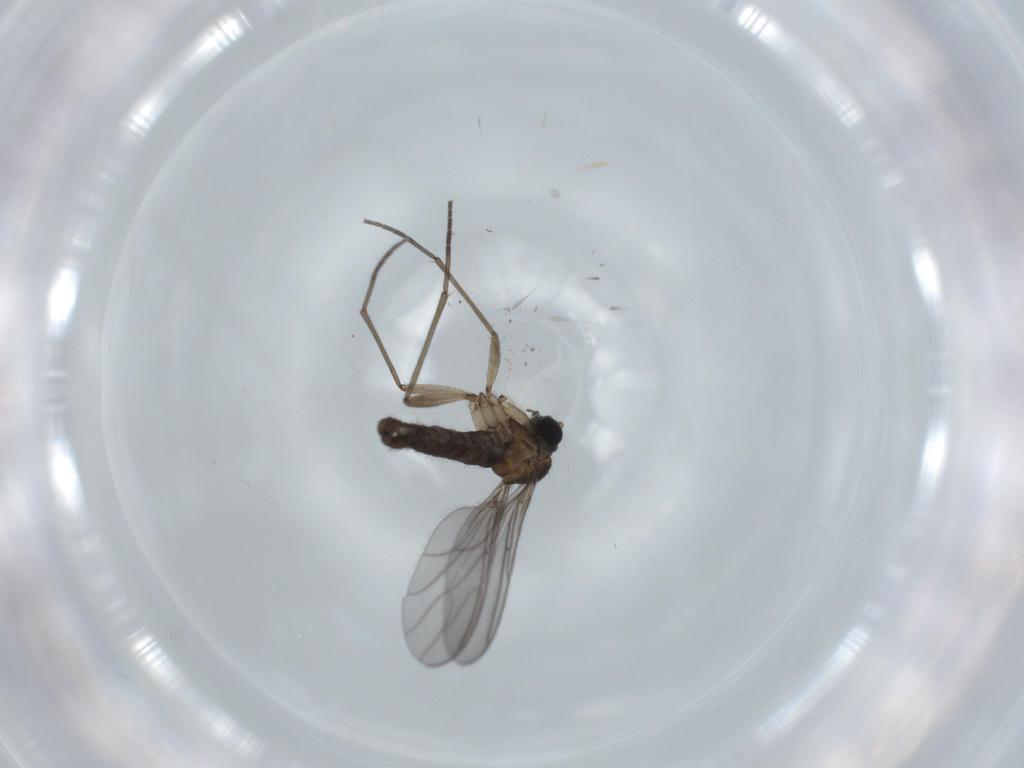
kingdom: Animalia
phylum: Arthropoda
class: Insecta
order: Diptera
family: Sciaridae
